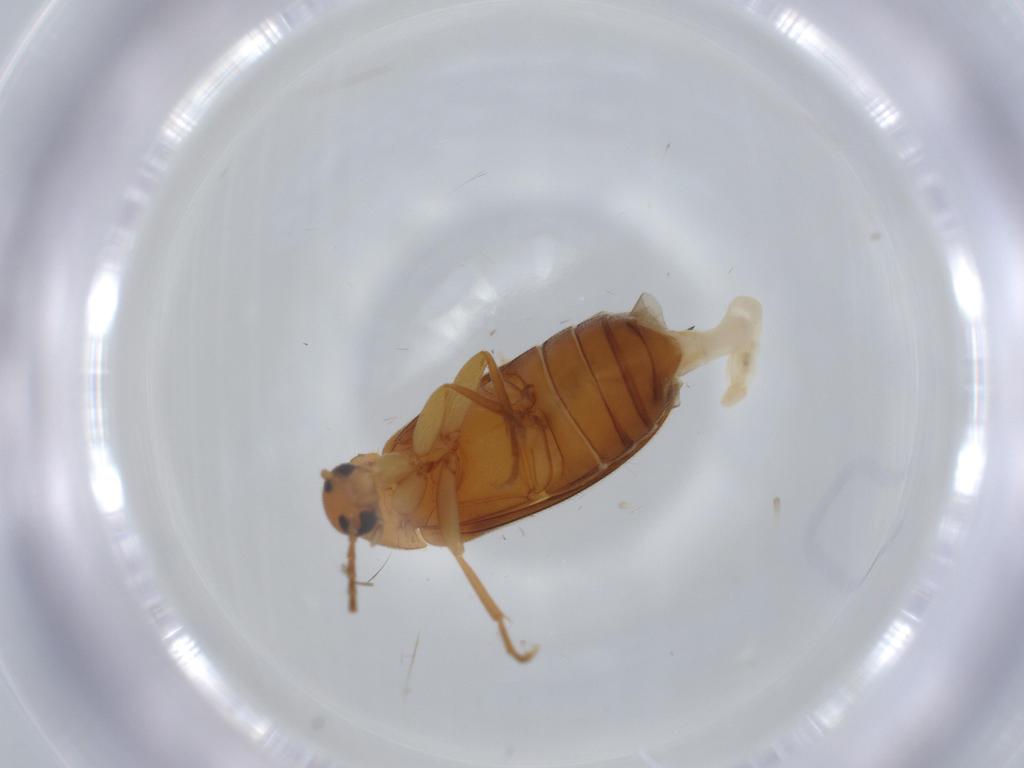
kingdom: Animalia
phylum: Arthropoda
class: Insecta
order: Coleoptera
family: Scraptiidae
